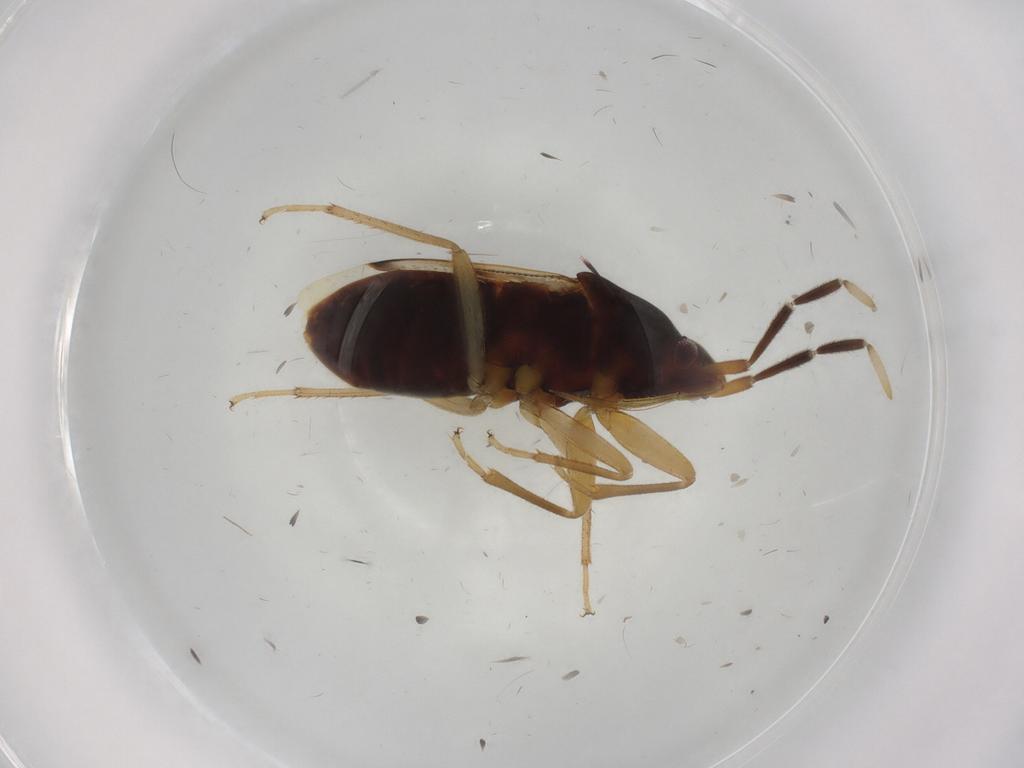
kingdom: Animalia
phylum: Arthropoda
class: Insecta
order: Hemiptera
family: Rhyparochromidae
